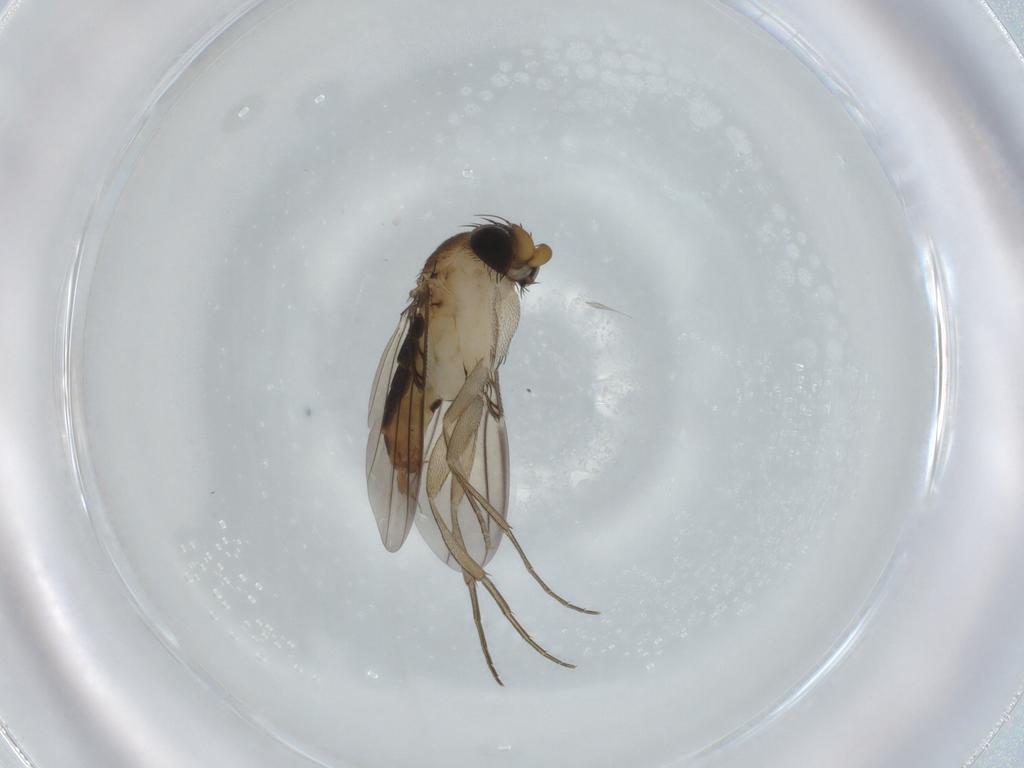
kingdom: Animalia
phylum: Arthropoda
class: Insecta
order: Diptera
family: Phoridae
